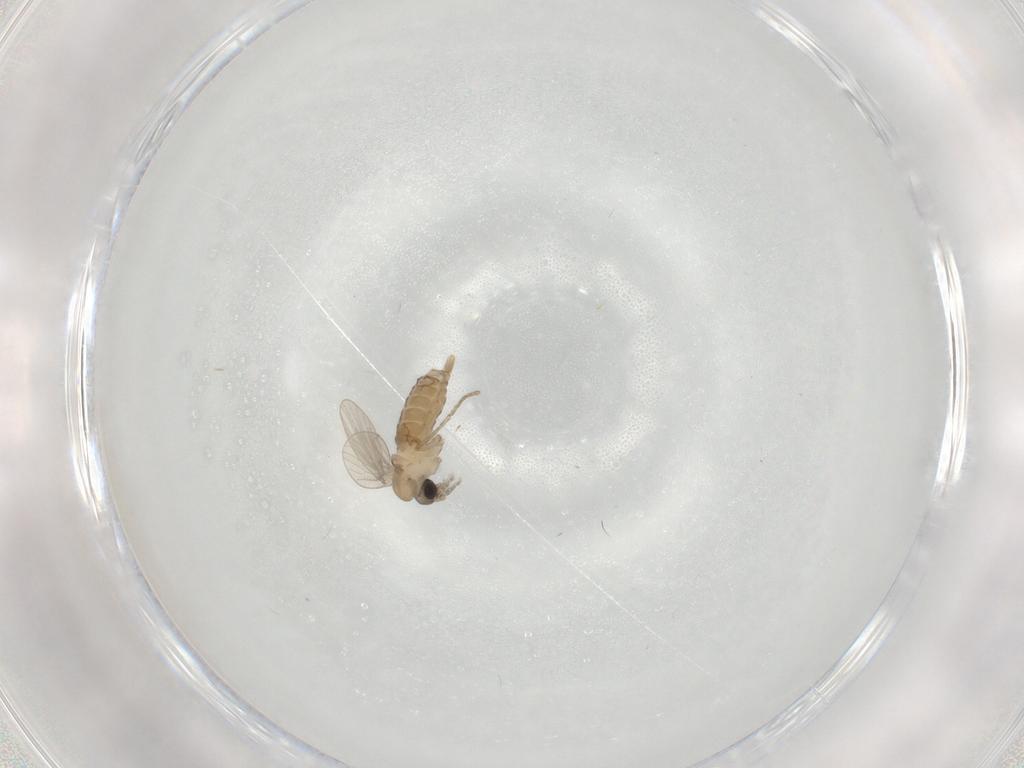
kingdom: Animalia
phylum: Arthropoda
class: Insecta
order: Diptera
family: Psychodidae
